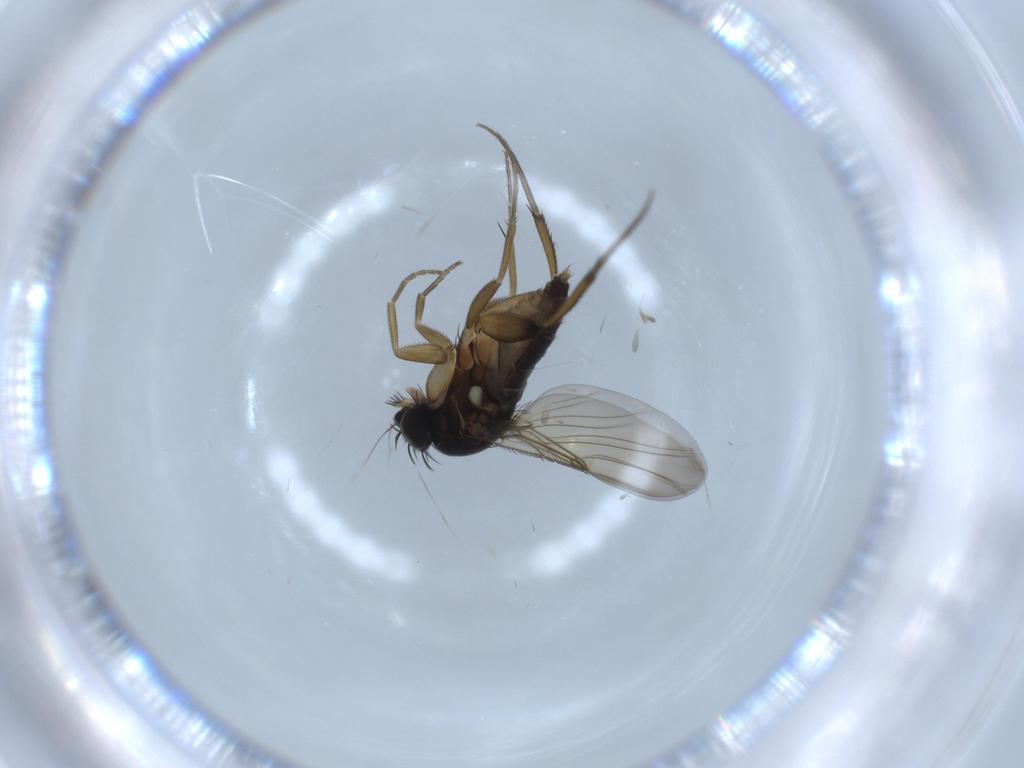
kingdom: Animalia
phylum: Arthropoda
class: Insecta
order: Diptera
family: Phoridae
